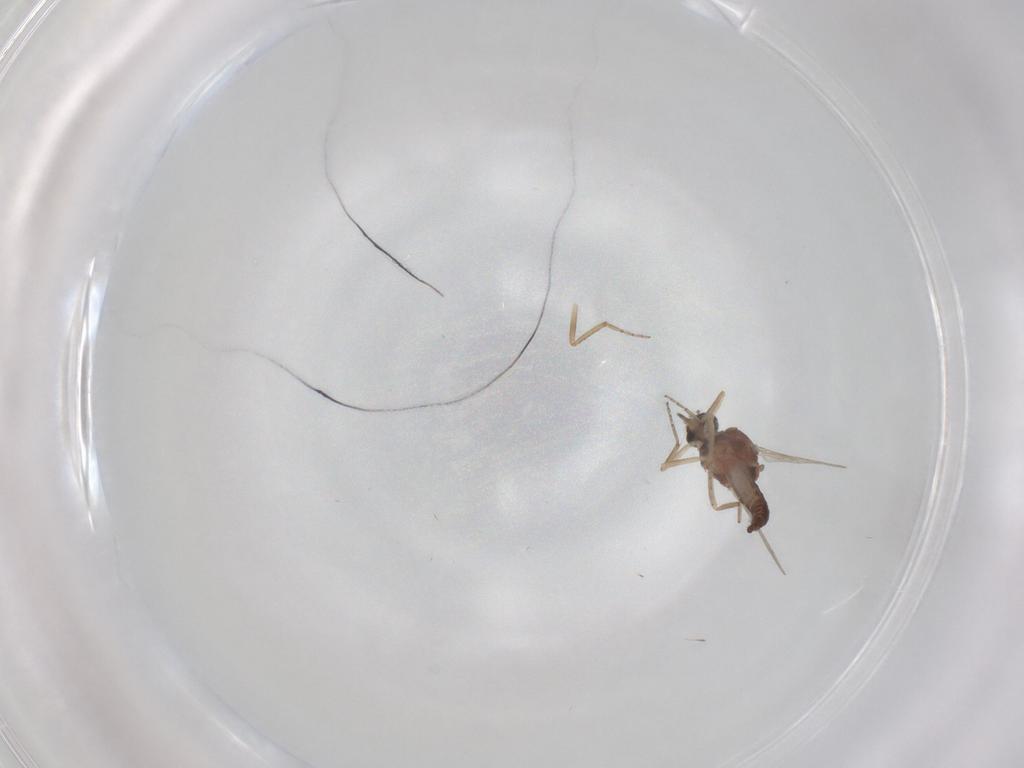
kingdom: Animalia
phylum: Arthropoda
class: Insecta
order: Diptera
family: Ceratopogonidae
